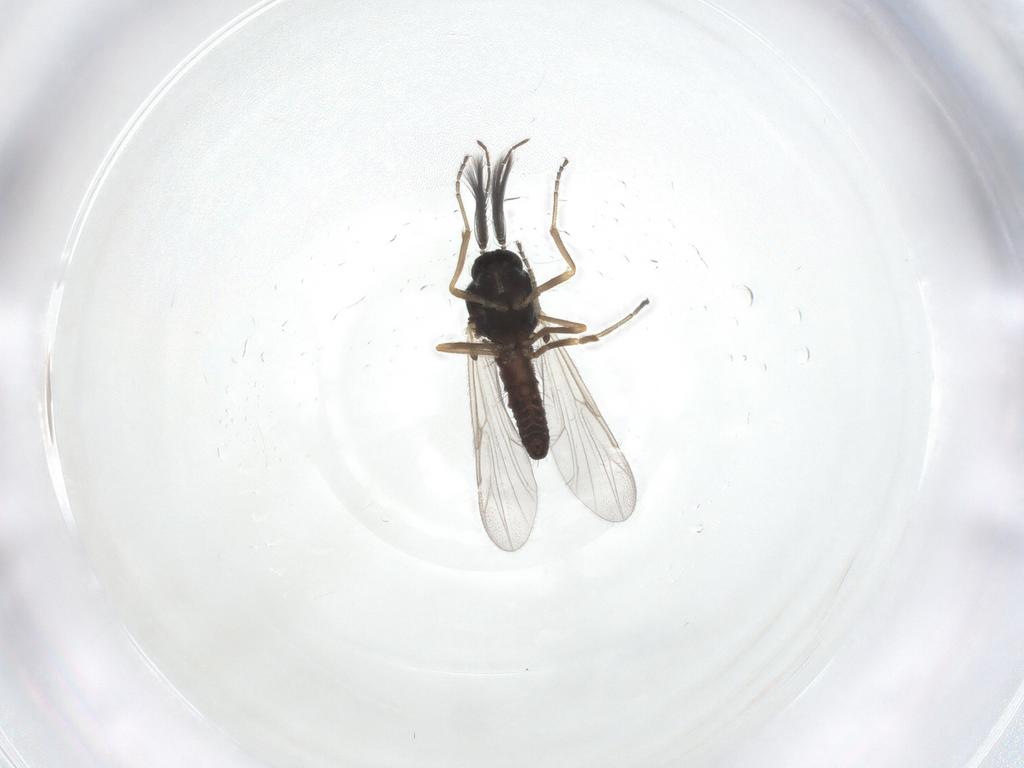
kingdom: Animalia
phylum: Arthropoda
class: Insecta
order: Diptera
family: Ceratopogonidae
